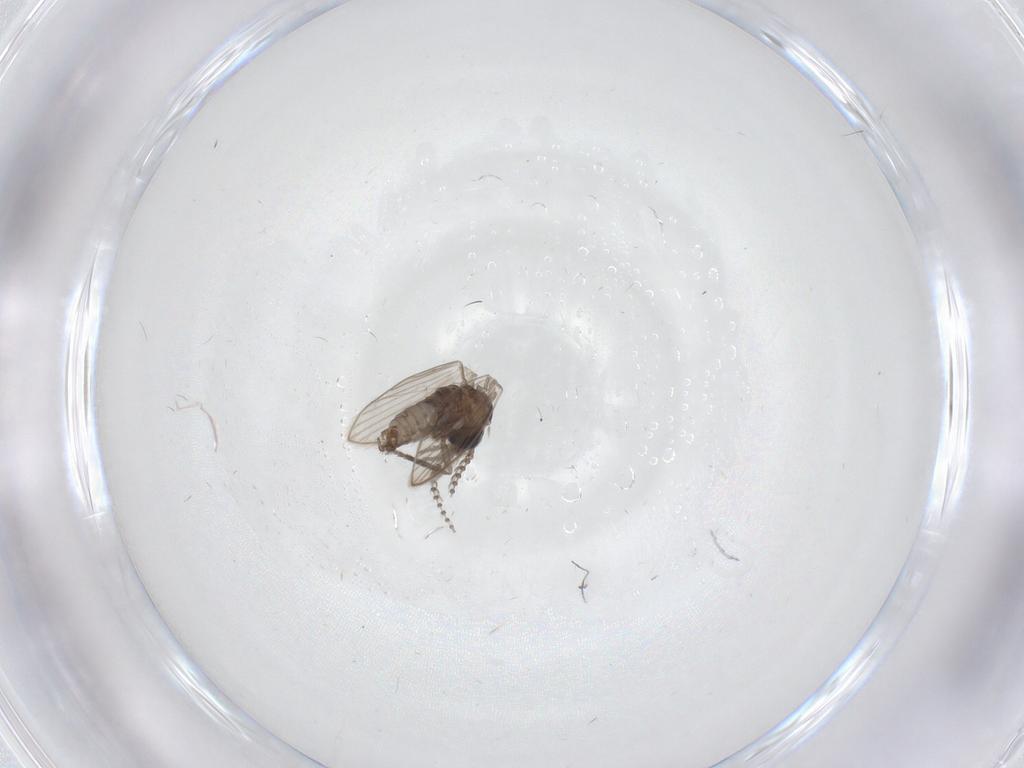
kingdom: Animalia
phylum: Arthropoda
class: Insecta
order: Diptera
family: Psychodidae
